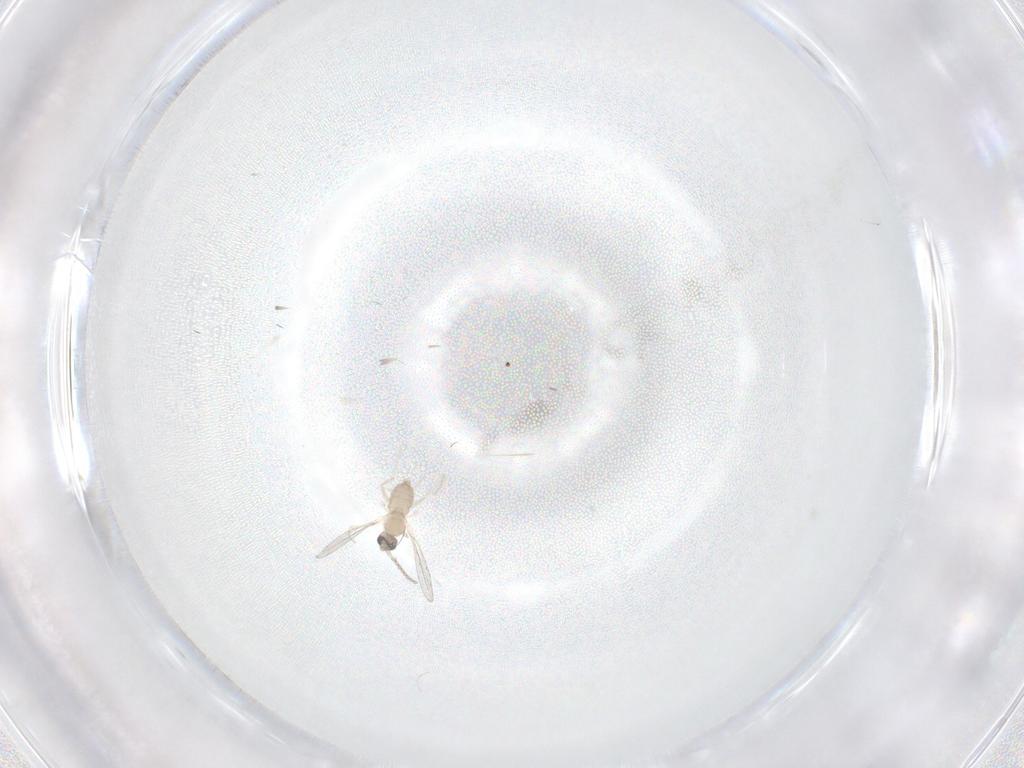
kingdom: Animalia
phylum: Arthropoda
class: Insecta
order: Diptera
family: Cecidomyiidae
